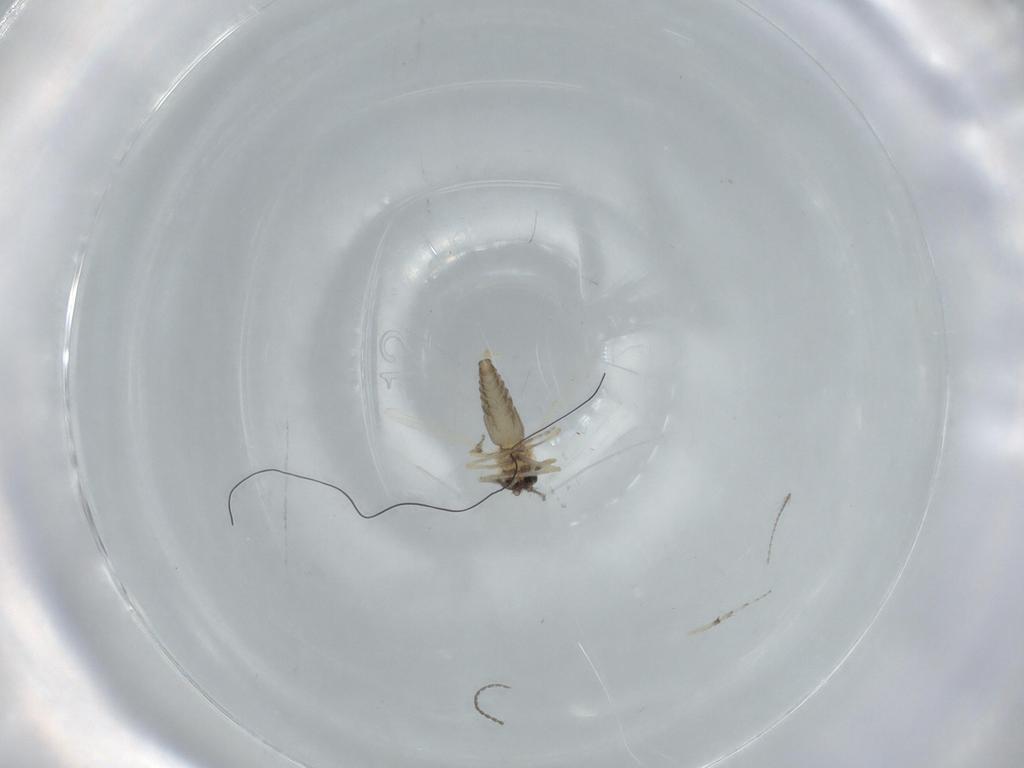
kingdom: Animalia
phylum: Arthropoda
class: Insecta
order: Diptera
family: Ceratopogonidae
